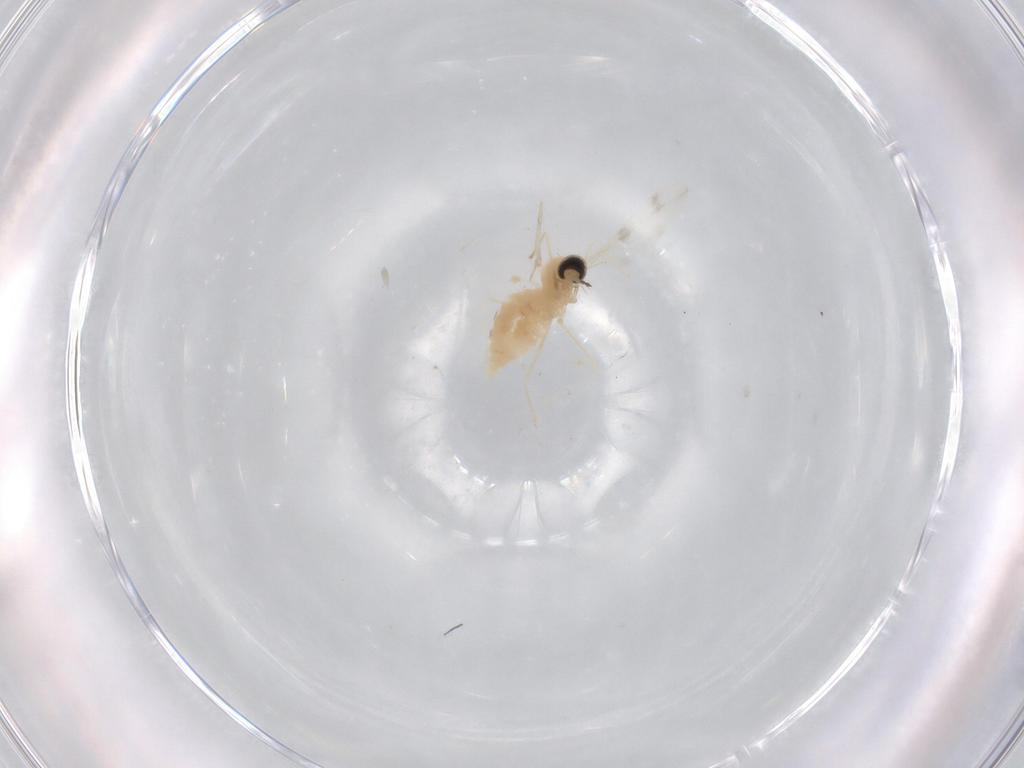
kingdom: Animalia
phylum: Arthropoda
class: Insecta
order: Diptera
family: Cecidomyiidae
